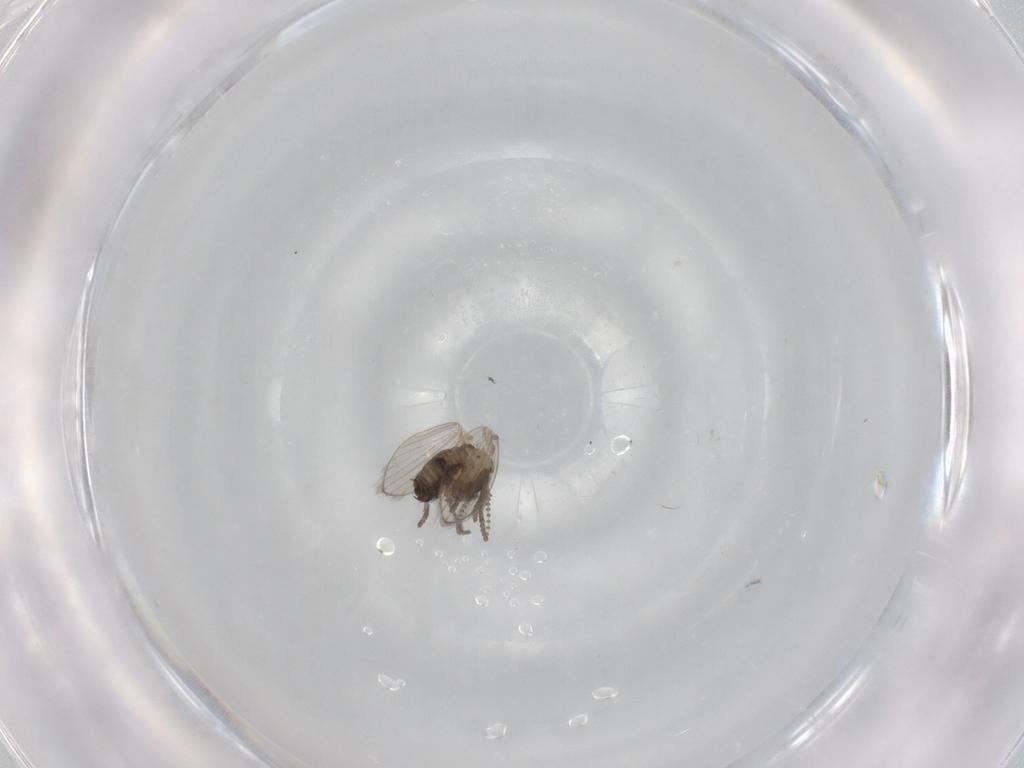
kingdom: Animalia
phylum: Arthropoda
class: Insecta
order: Diptera
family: Psychodidae
